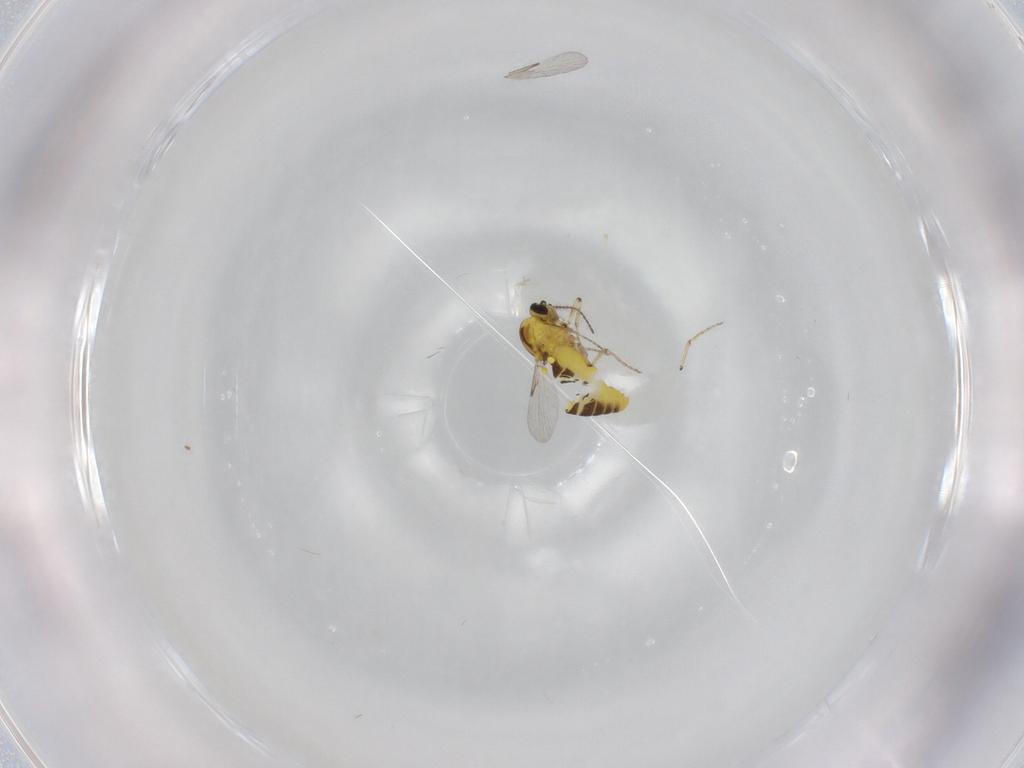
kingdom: Animalia
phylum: Arthropoda
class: Insecta
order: Diptera
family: Ceratopogonidae
